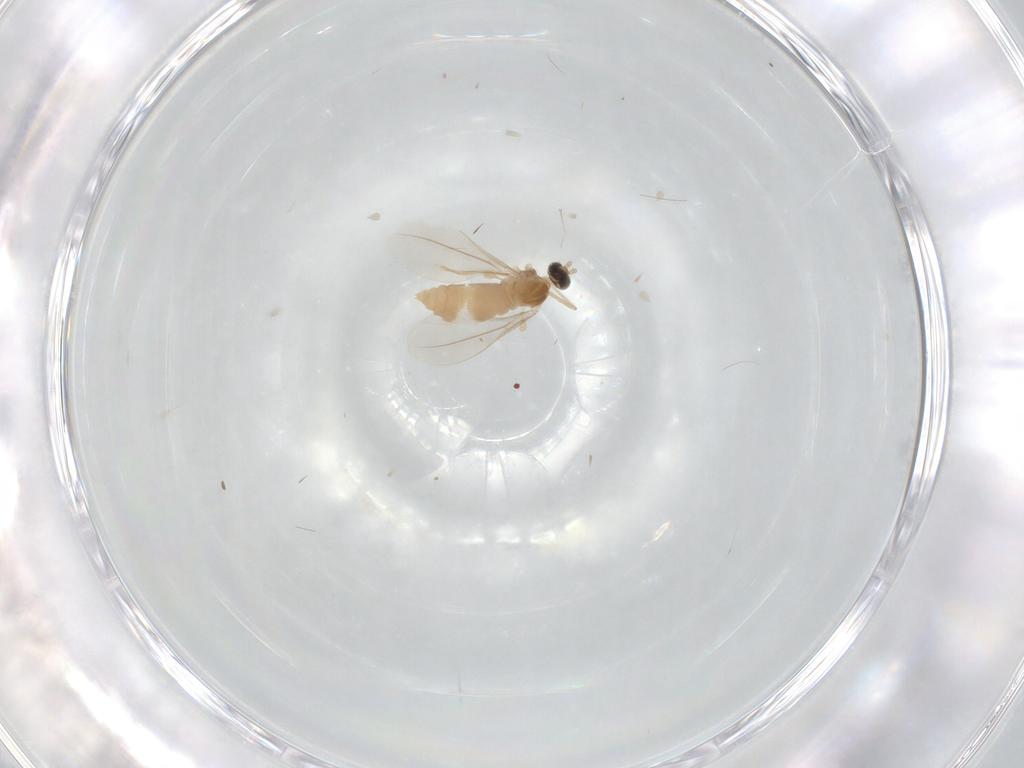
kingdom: Animalia
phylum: Arthropoda
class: Insecta
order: Diptera
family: Cecidomyiidae
